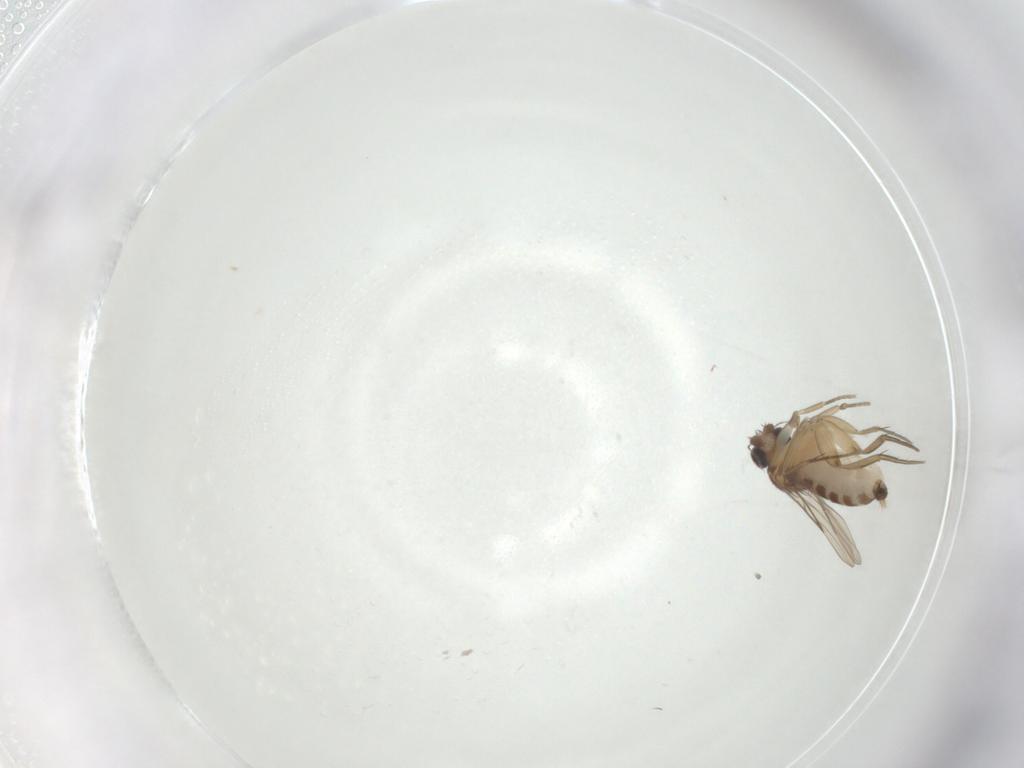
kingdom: Animalia
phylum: Arthropoda
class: Insecta
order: Diptera
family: Phoridae
